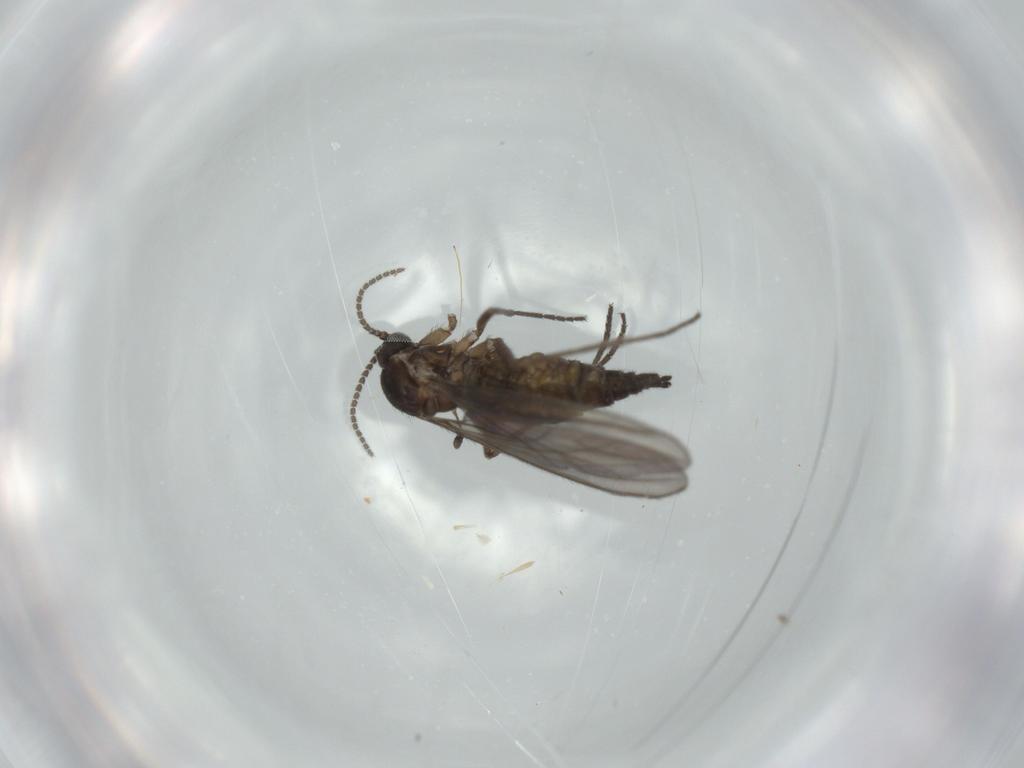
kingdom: Animalia
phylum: Arthropoda
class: Insecta
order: Diptera
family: Sciaridae
